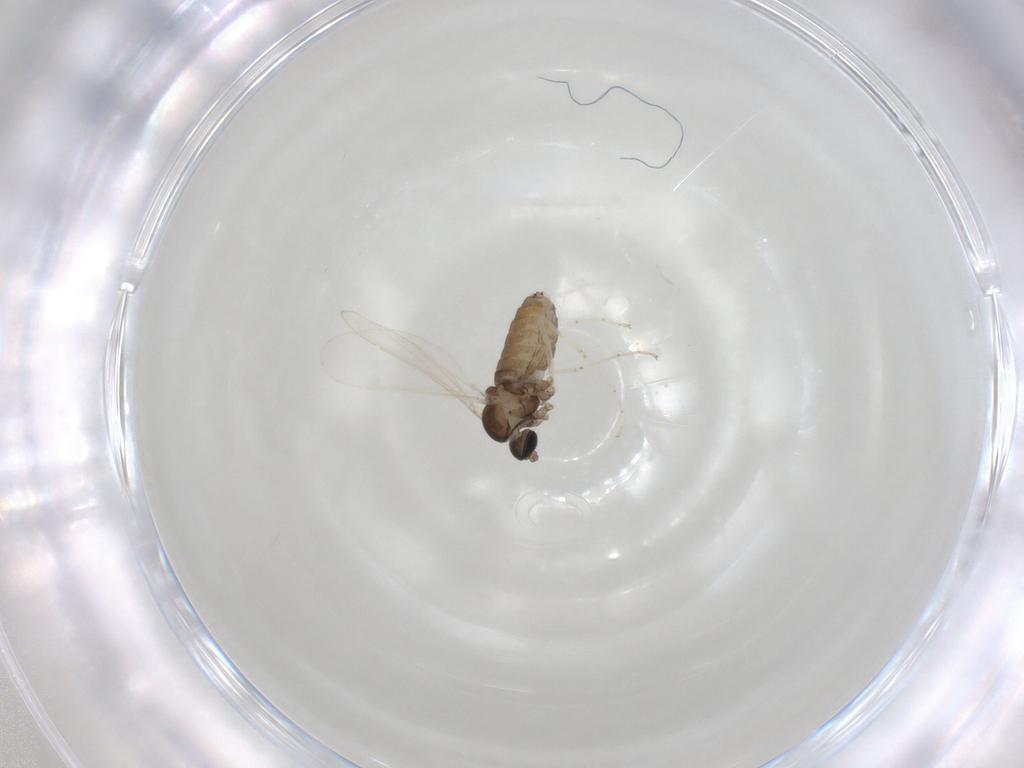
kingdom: Animalia
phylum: Arthropoda
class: Insecta
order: Diptera
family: Cecidomyiidae
